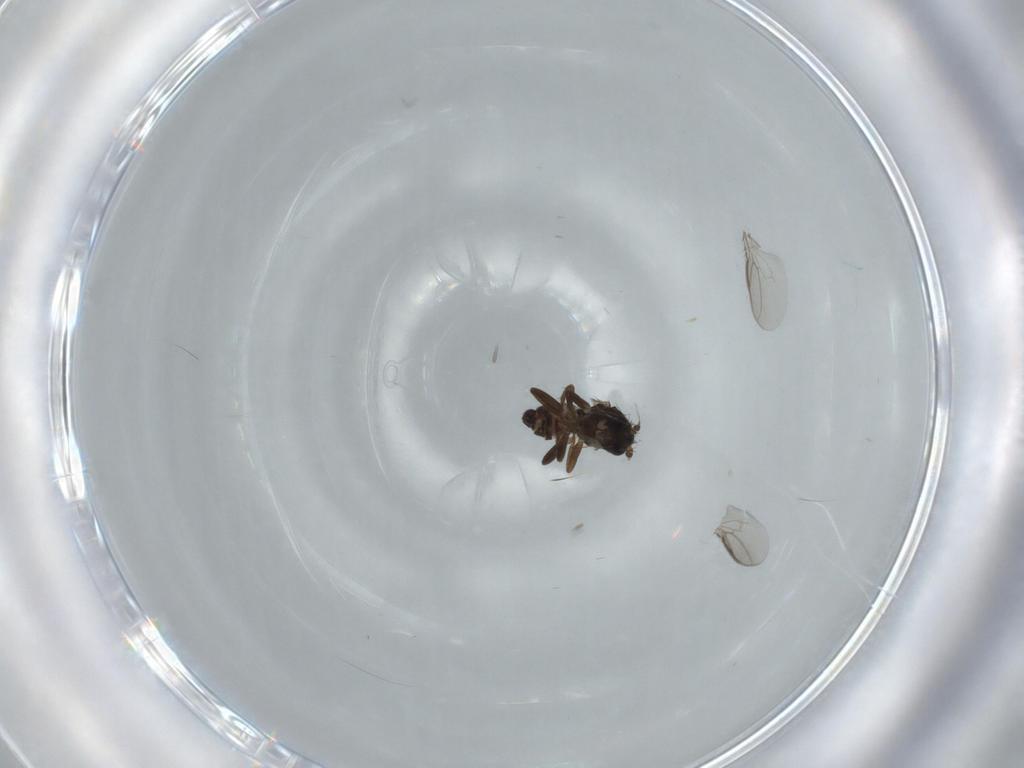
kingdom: Animalia
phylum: Arthropoda
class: Insecta
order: Diptera
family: Sphaeroceridae
